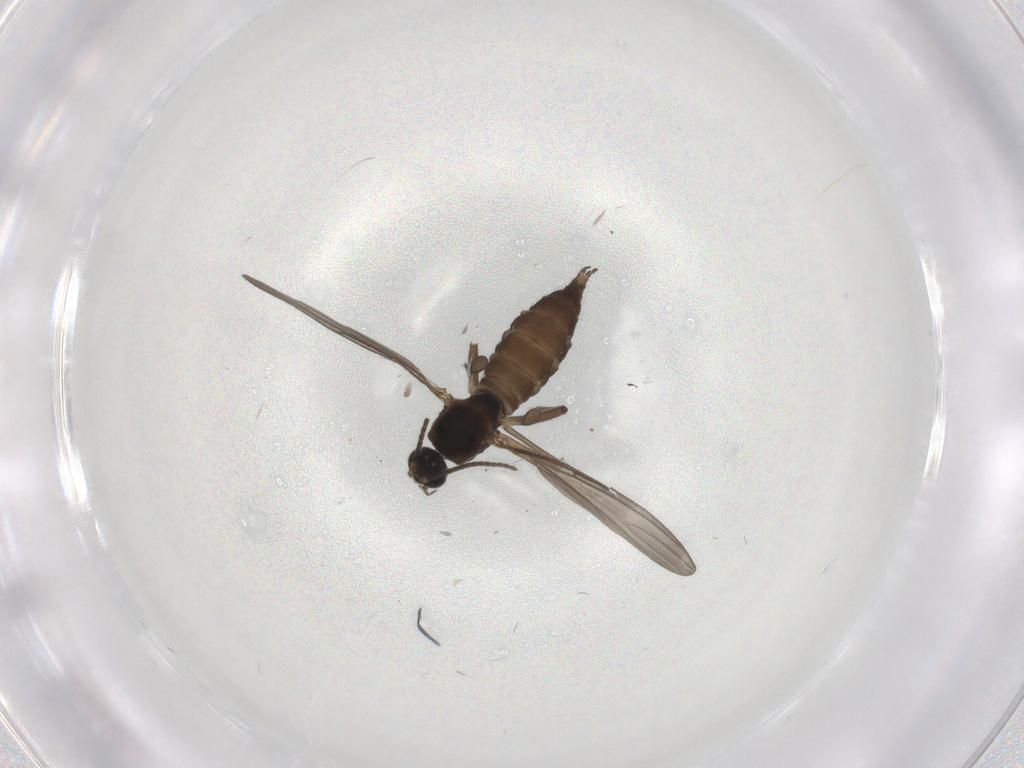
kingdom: Animalia
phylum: Arthropoda
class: Insecta
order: Diptera
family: Sciaridae
